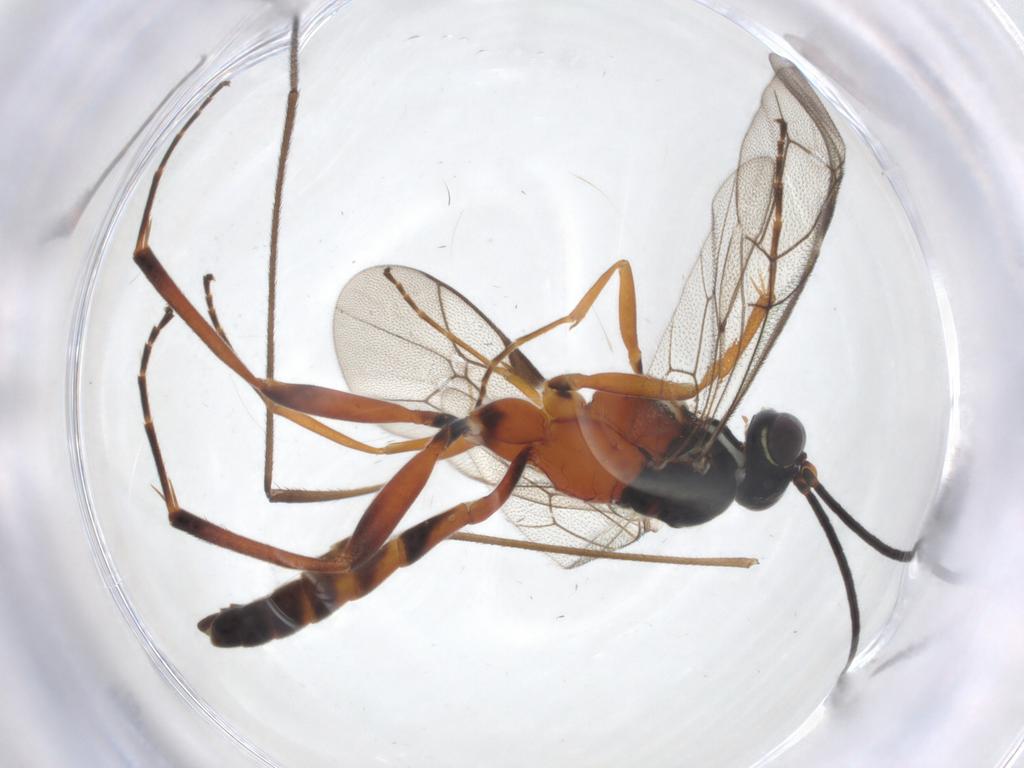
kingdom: Animalia
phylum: Arthropoda
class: Insecta
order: Hymenoptera
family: Ichneumonidae
